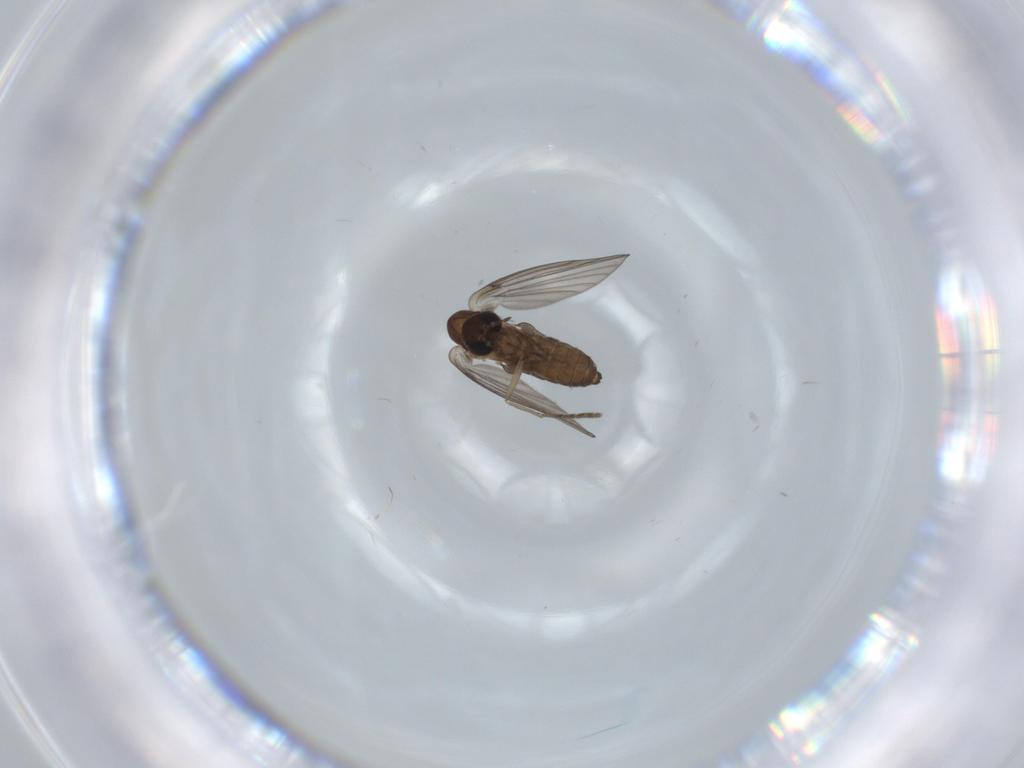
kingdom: Animalia
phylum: Arthropoda
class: Insecta
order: Diptera
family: Psychodidae
